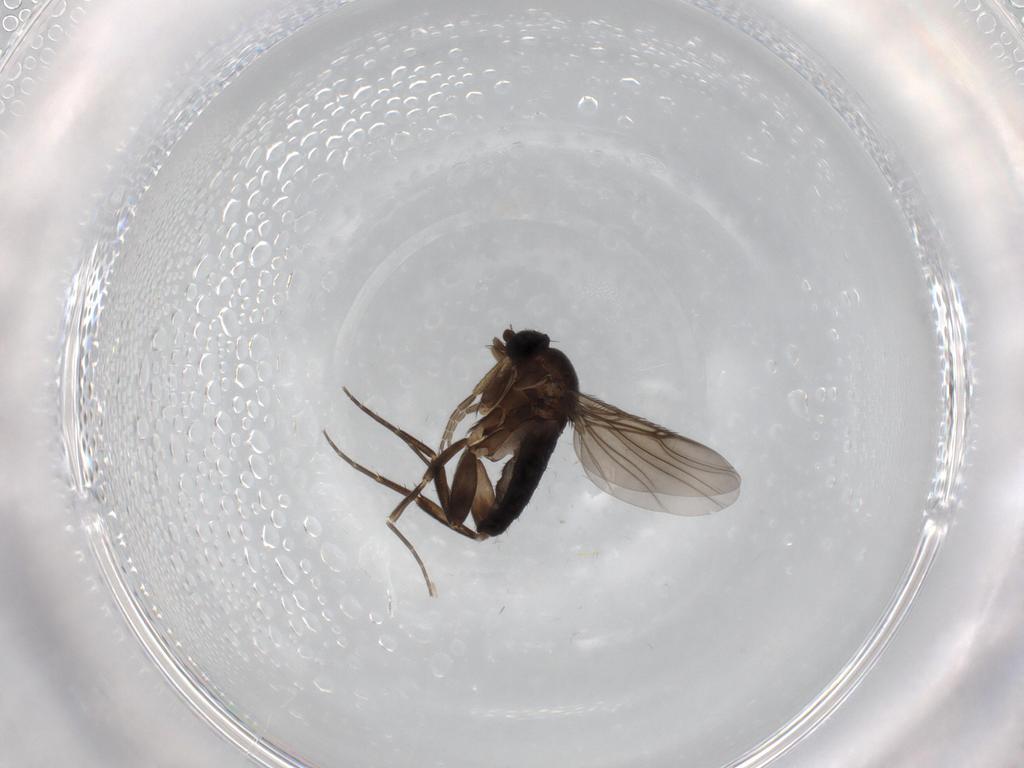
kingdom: Animalia
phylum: Arthropoda
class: Insecta
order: Diptera
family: Phoridae
